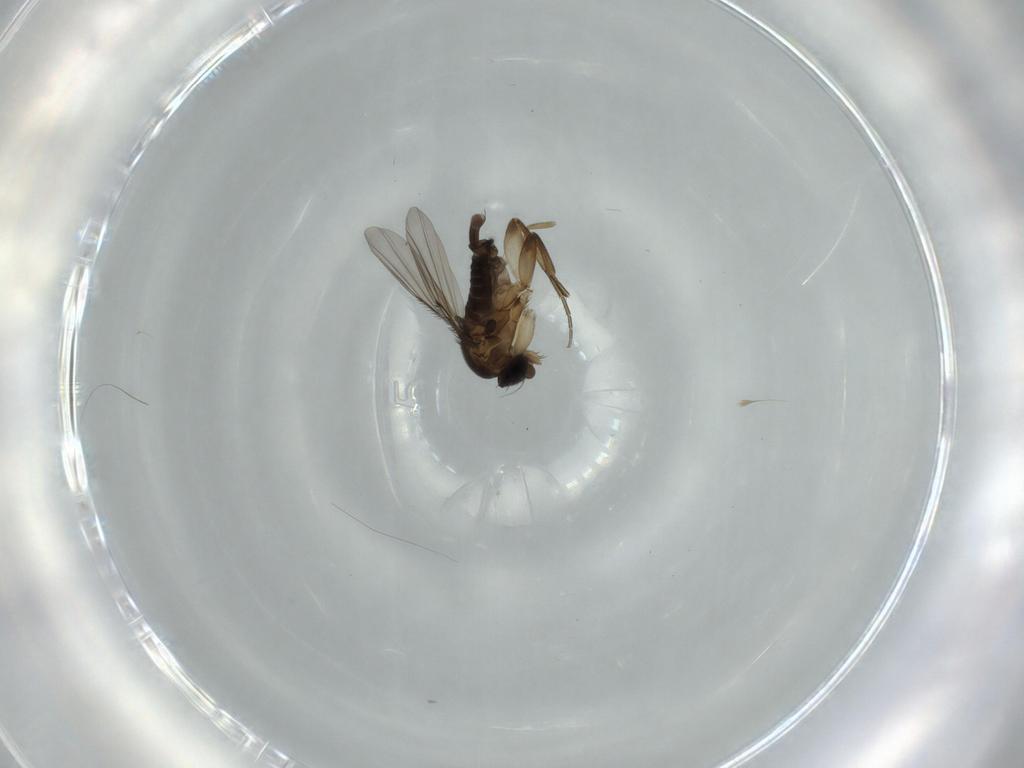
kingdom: Animalia
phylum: Arthropoda
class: Insecta
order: Diptera
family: Phoridae
